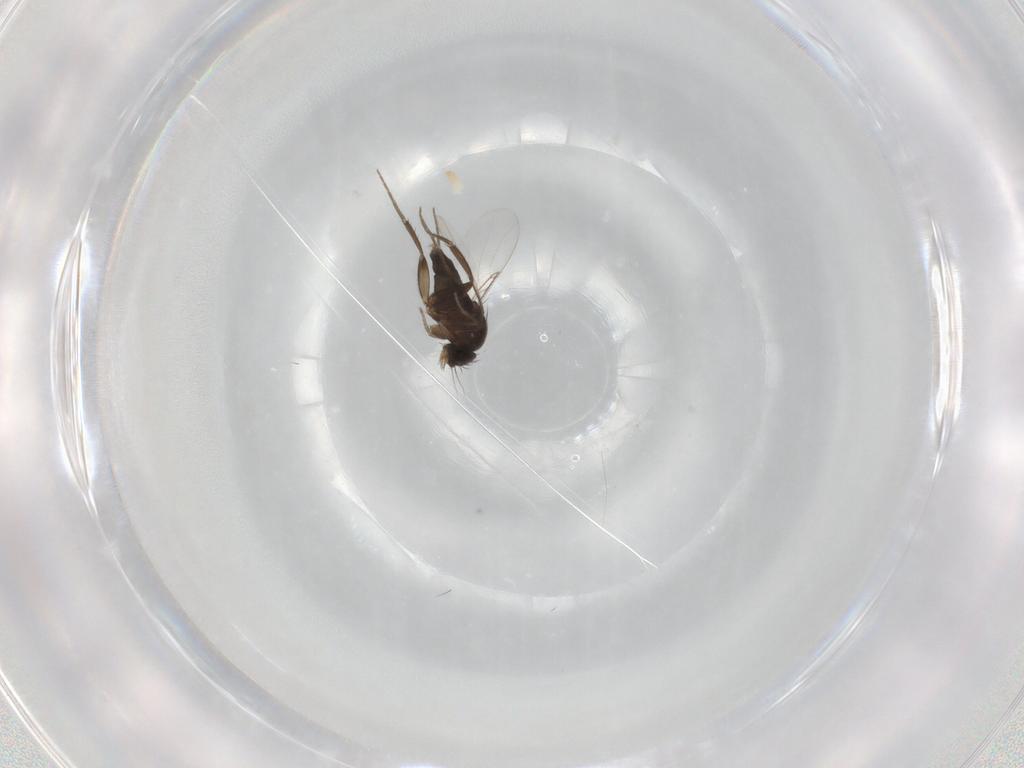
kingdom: Animalia
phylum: Arthropoda
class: Insecta
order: Diptera
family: Phoridae
